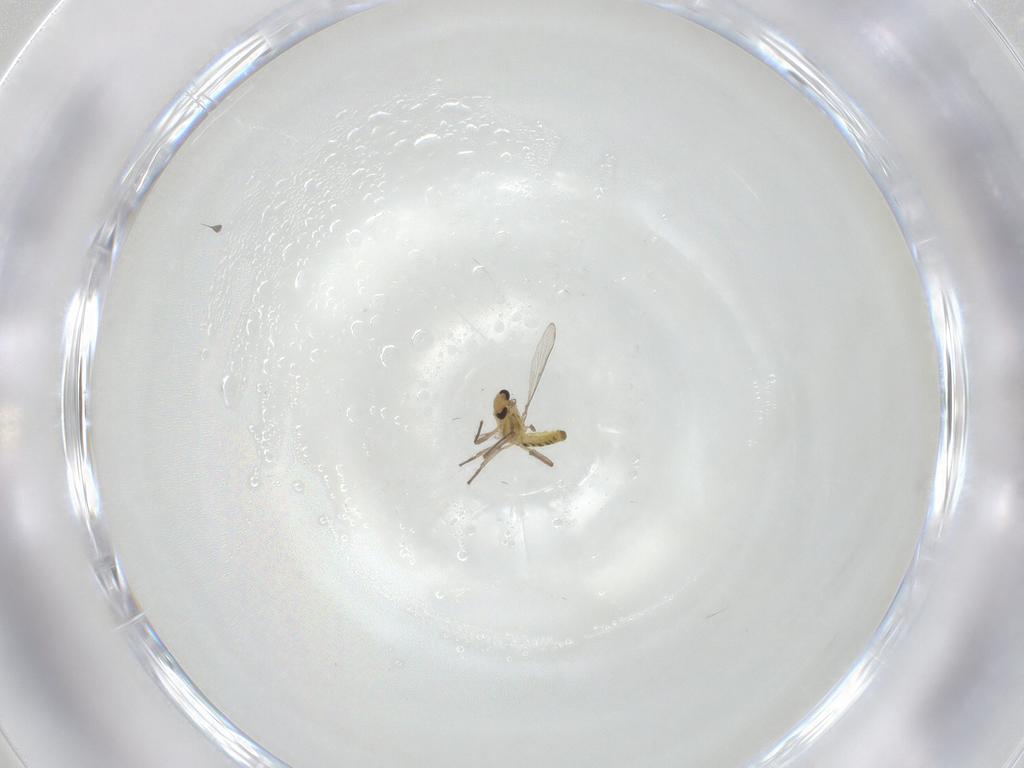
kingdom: Animalia
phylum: Arthropoda
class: Insecta
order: Diptera
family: Chironomidae
